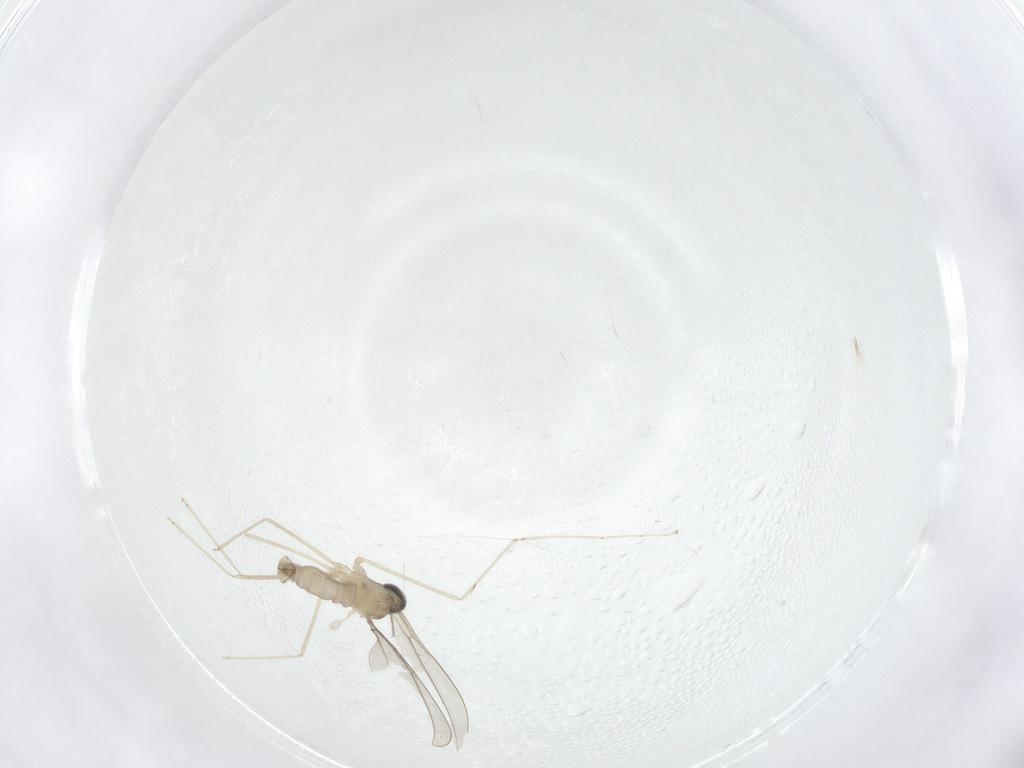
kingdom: Animalia
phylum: Arthropoda
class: Insecta
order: Diptera
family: Cecidomyiidae
